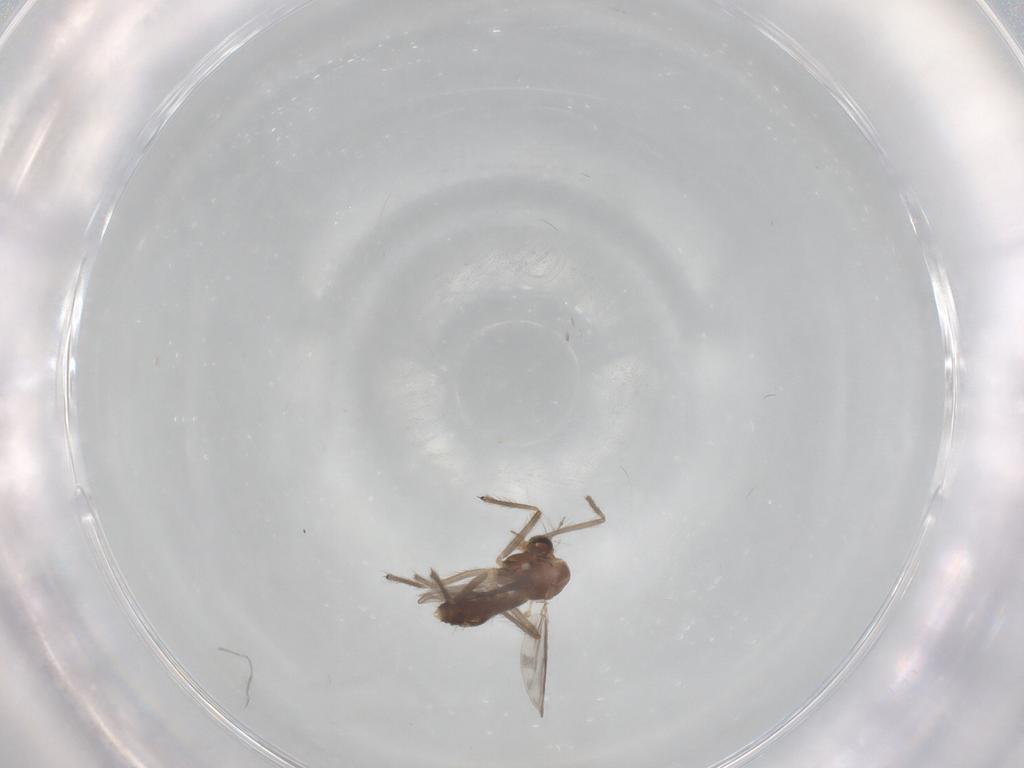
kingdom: Animalia
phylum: Arthropoda
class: Insecta
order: Diptera
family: Chironomidae
